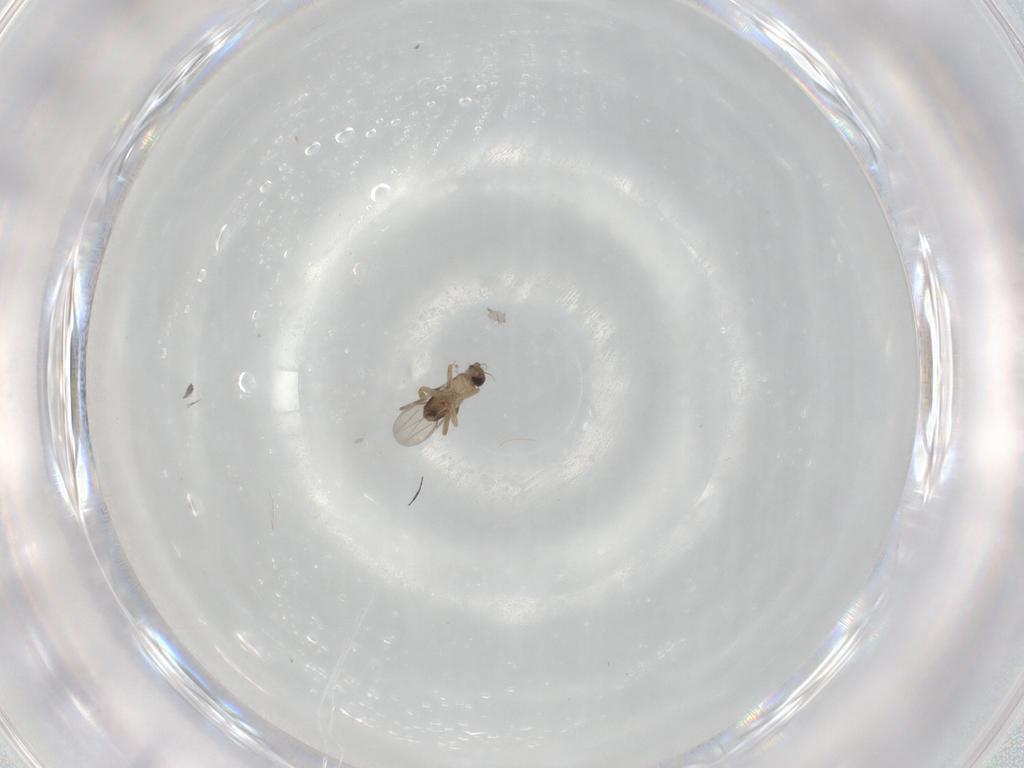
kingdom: Animalia
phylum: Arthropoda
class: Insecta
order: Diptera
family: Phoridae
